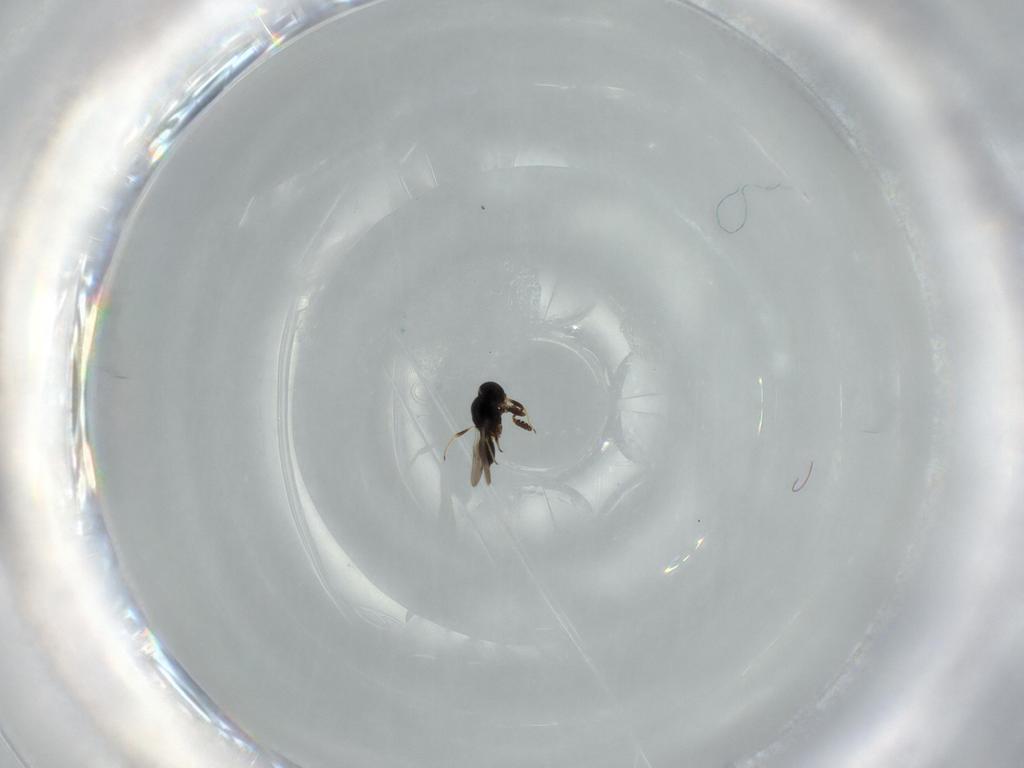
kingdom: Animalia
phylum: Arthropoda
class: Insecta
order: Hymenoptera
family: Scelionidae
